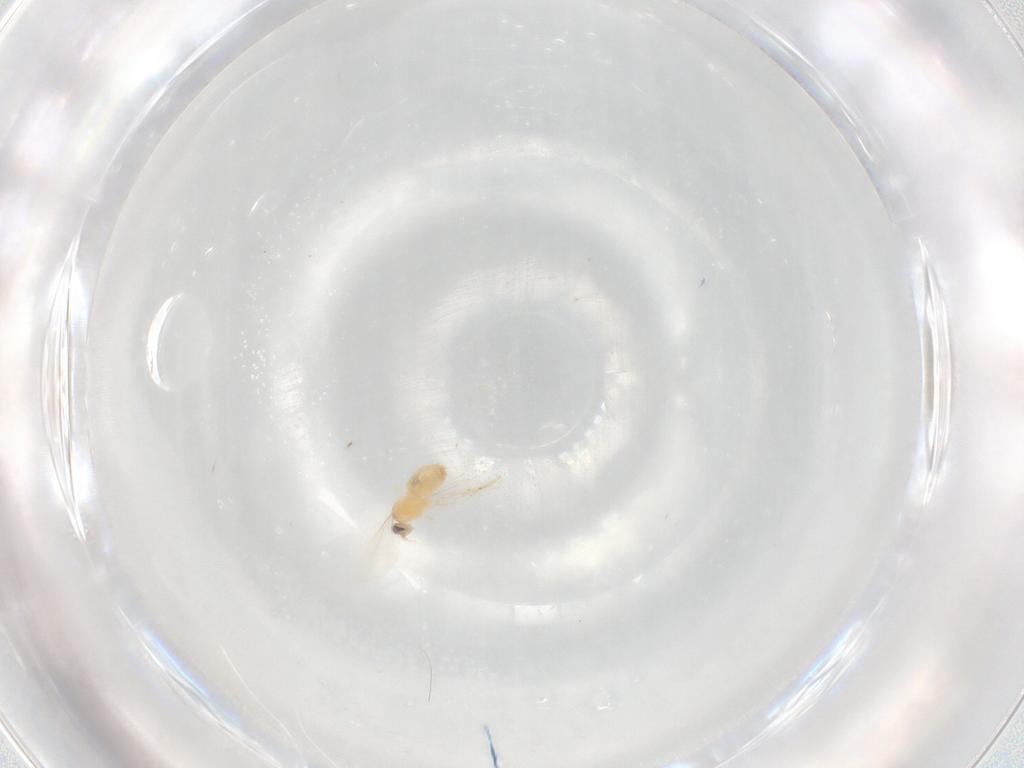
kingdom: Animalia
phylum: Arthropoda
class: Insecta
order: Diptera
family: Cecidomyiidae
